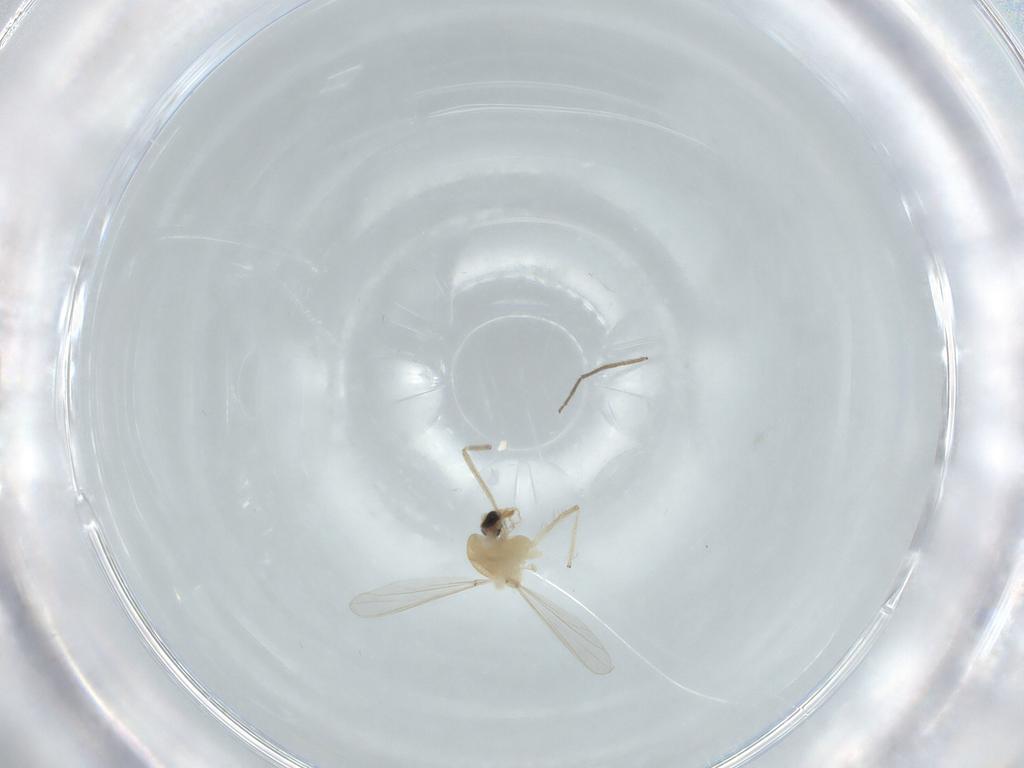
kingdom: Animalia
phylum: Arthropoda
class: Insecta
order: Diptera
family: Chironomidae
